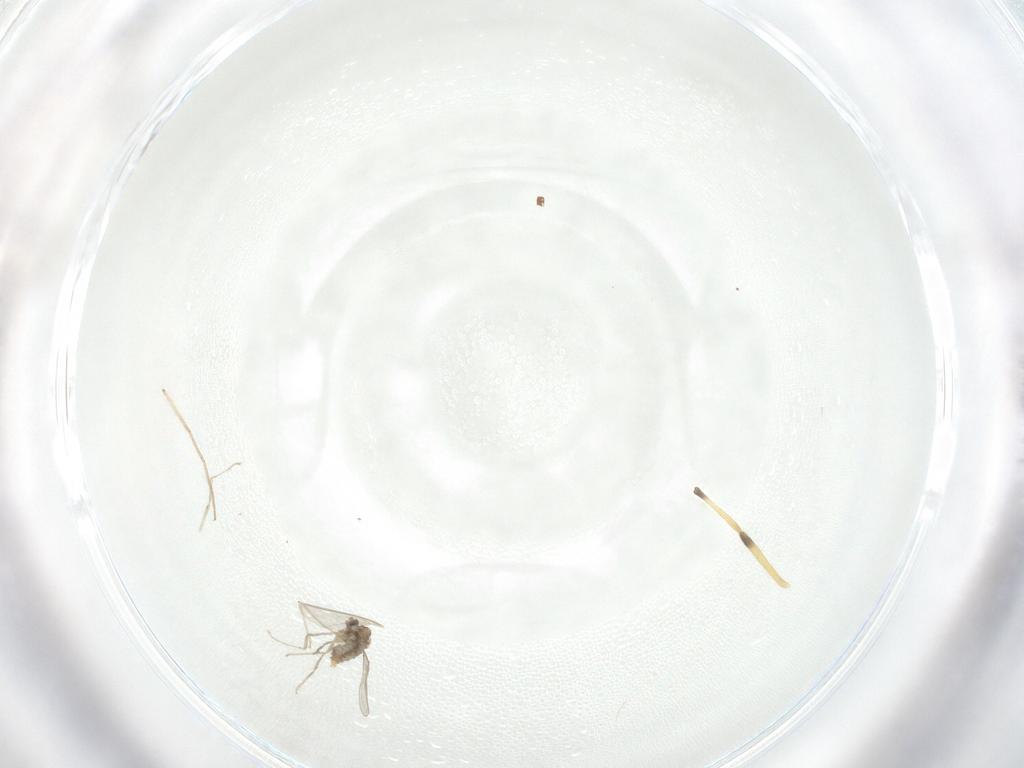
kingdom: Animalia
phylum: Arthropoda
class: Insecta
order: Diptera
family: Cecidomyiidae
